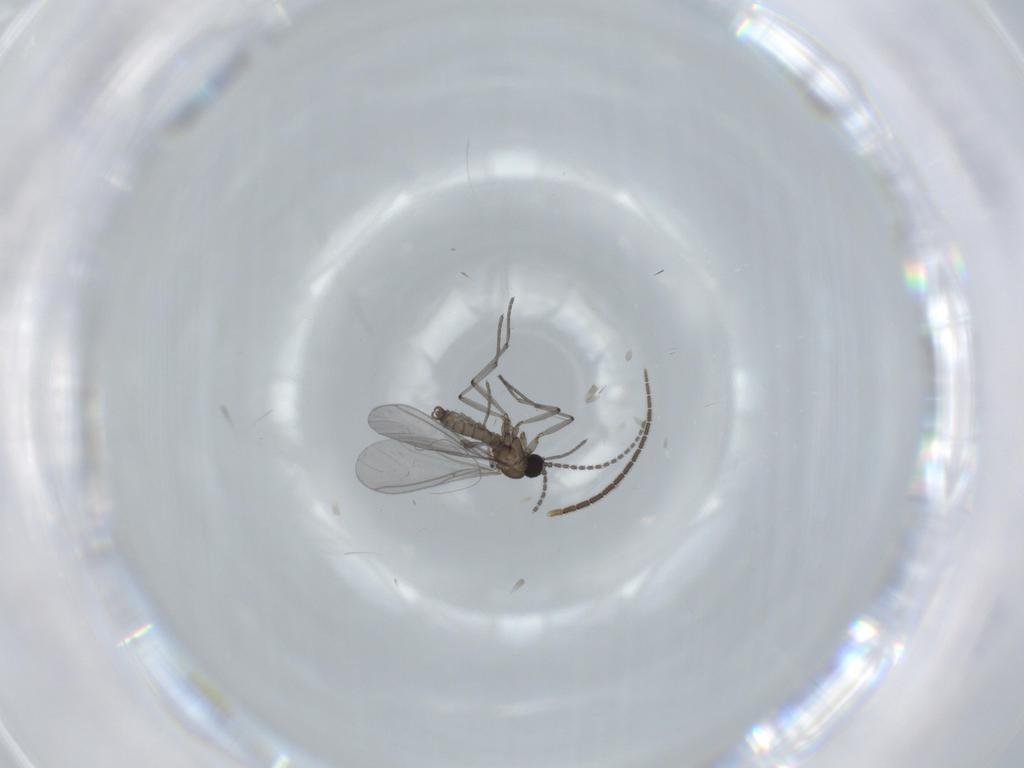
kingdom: Animalia
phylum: Arthropoda
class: Insecta
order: Diptera
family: Sciaridae
